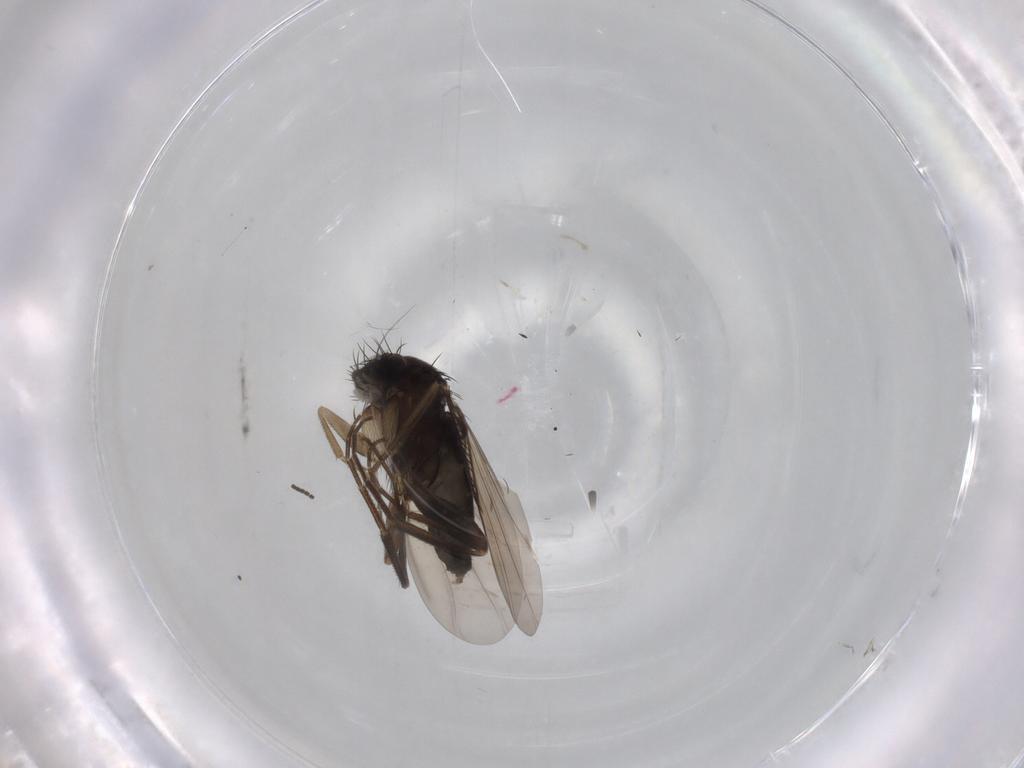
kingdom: Animalia
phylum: Arthropoda
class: Insecta
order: Diptera
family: Phoridae
